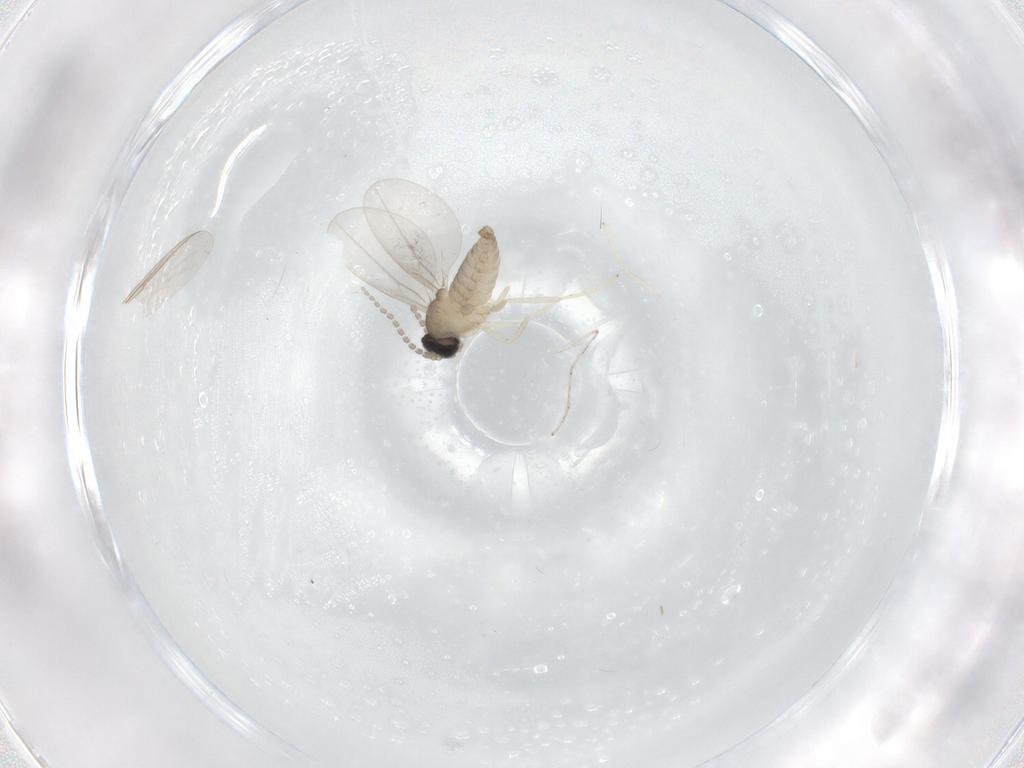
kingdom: Animalia
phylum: Arthropoda
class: Insecta
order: Diptera
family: Cecidomyiidae
